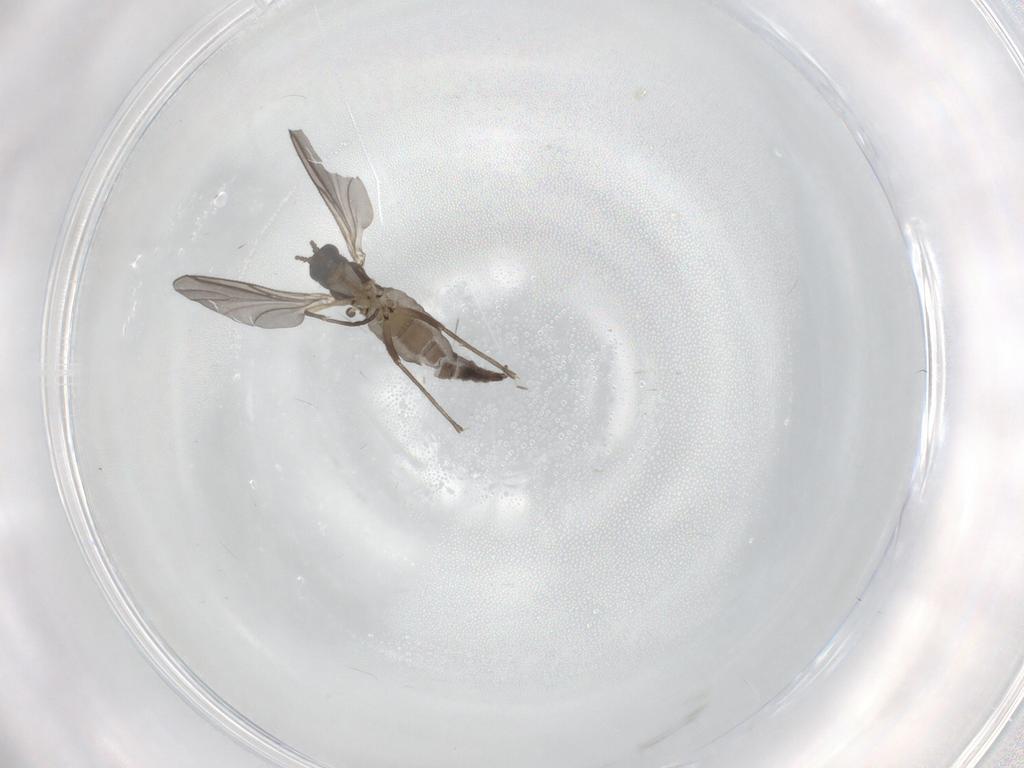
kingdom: Animalia
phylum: Arthropoda
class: Insecta
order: Diptera
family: Sciaridae
